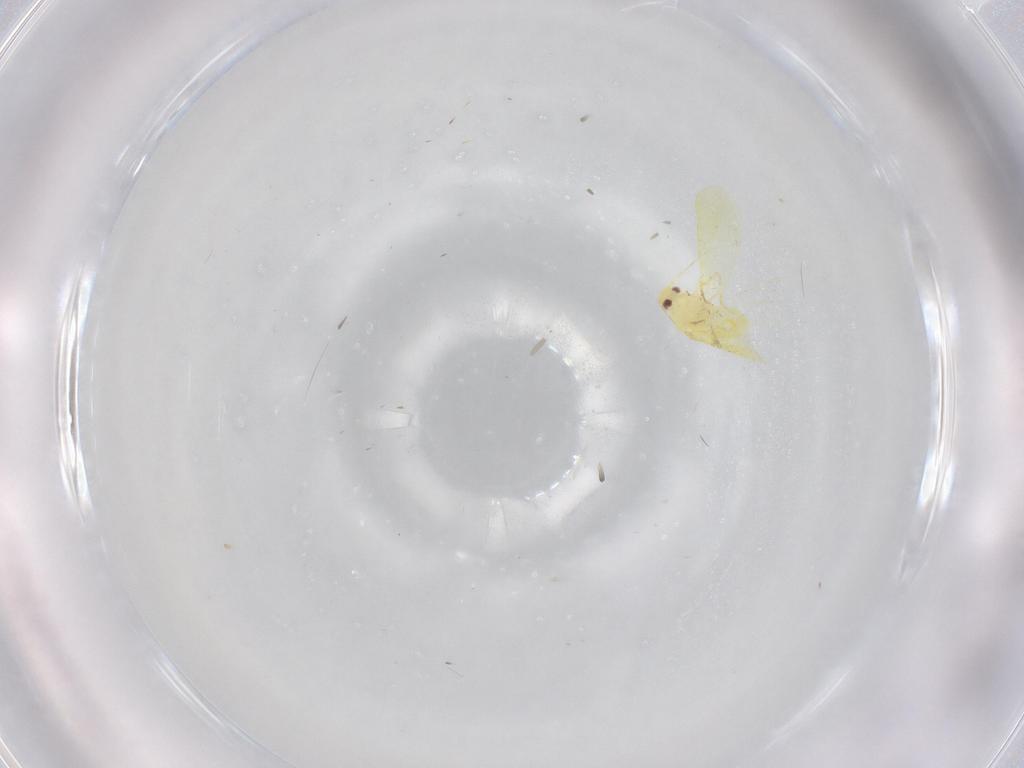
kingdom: Animalia
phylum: Arthropoda
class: Insecta
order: Hemiptera
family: Aleyrodidae
